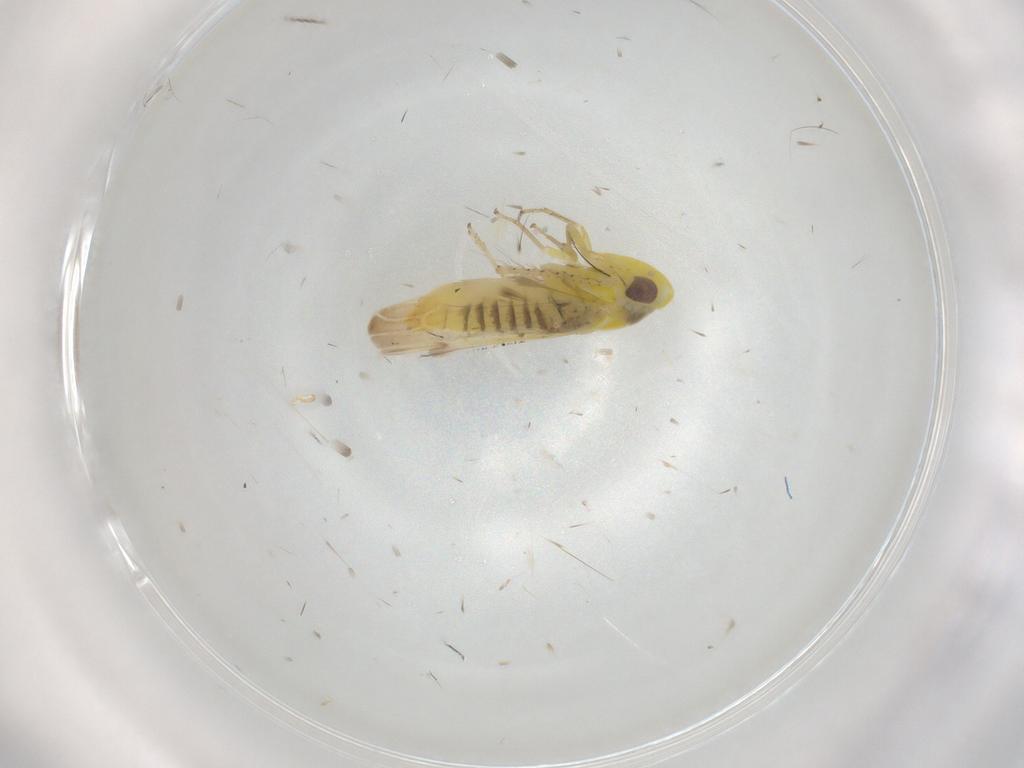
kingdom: Animalia
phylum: Arthropoda
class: Insecta
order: Hemiptera
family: Cicadellidae
